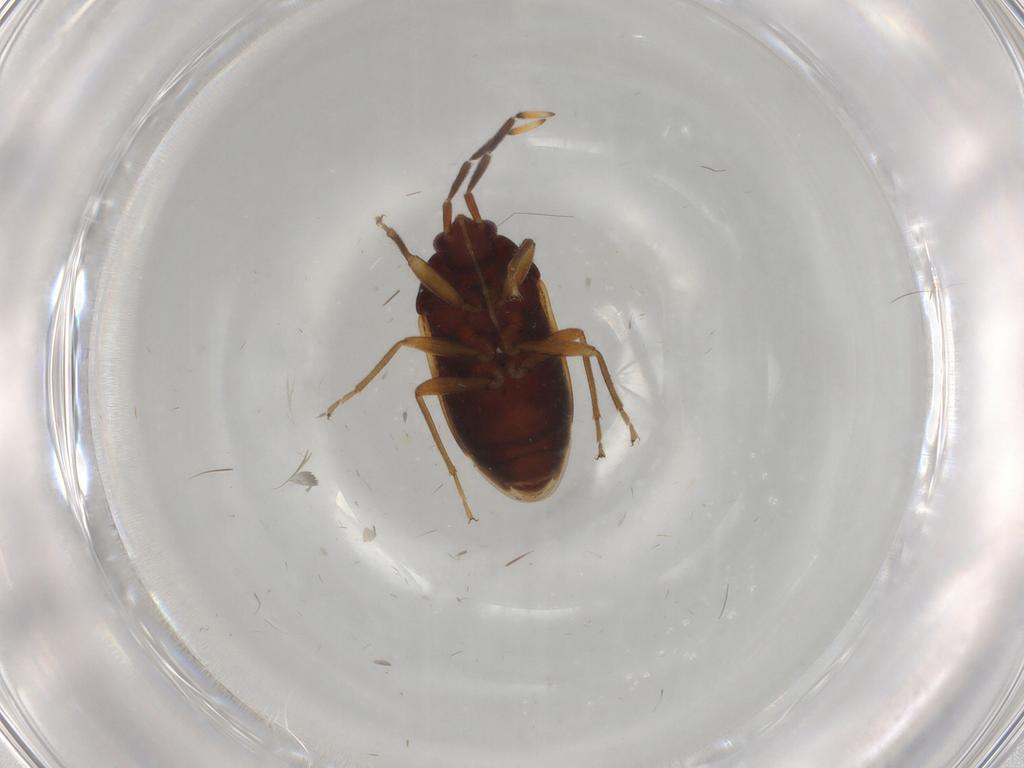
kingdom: Animalia
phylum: Arthropoda
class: Insecta
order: Hemiptera
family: Rhyparochromidae
